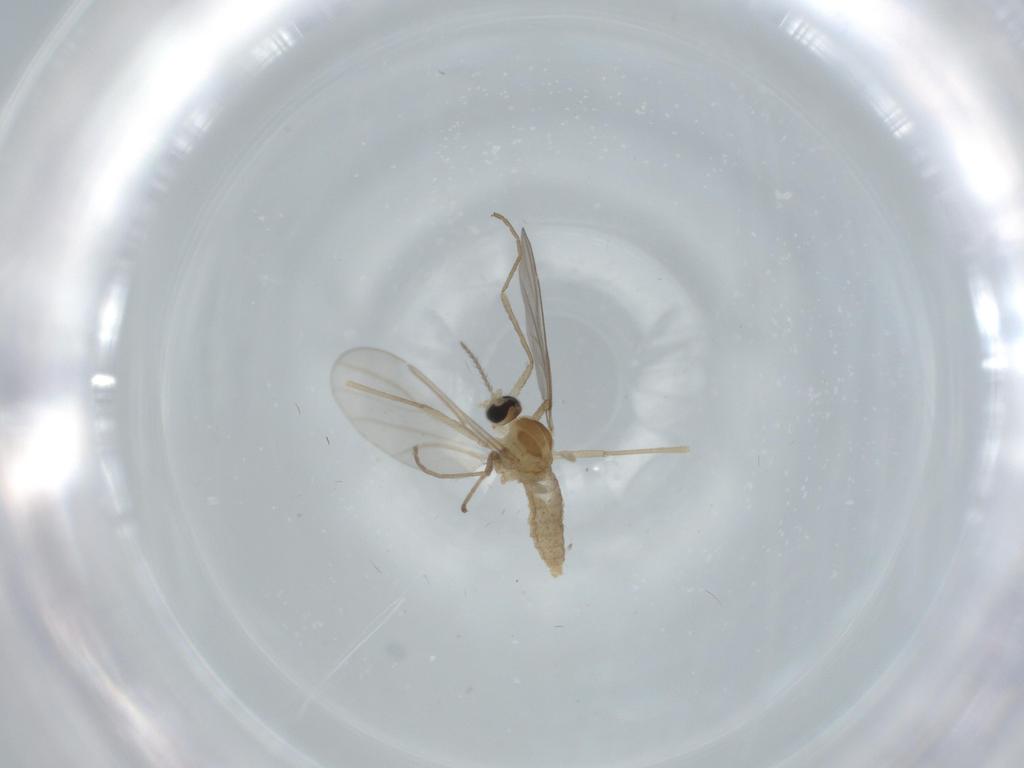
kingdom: Animalia
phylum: Arthropoda
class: Insecta
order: Diptera
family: Cecidomyiidae
